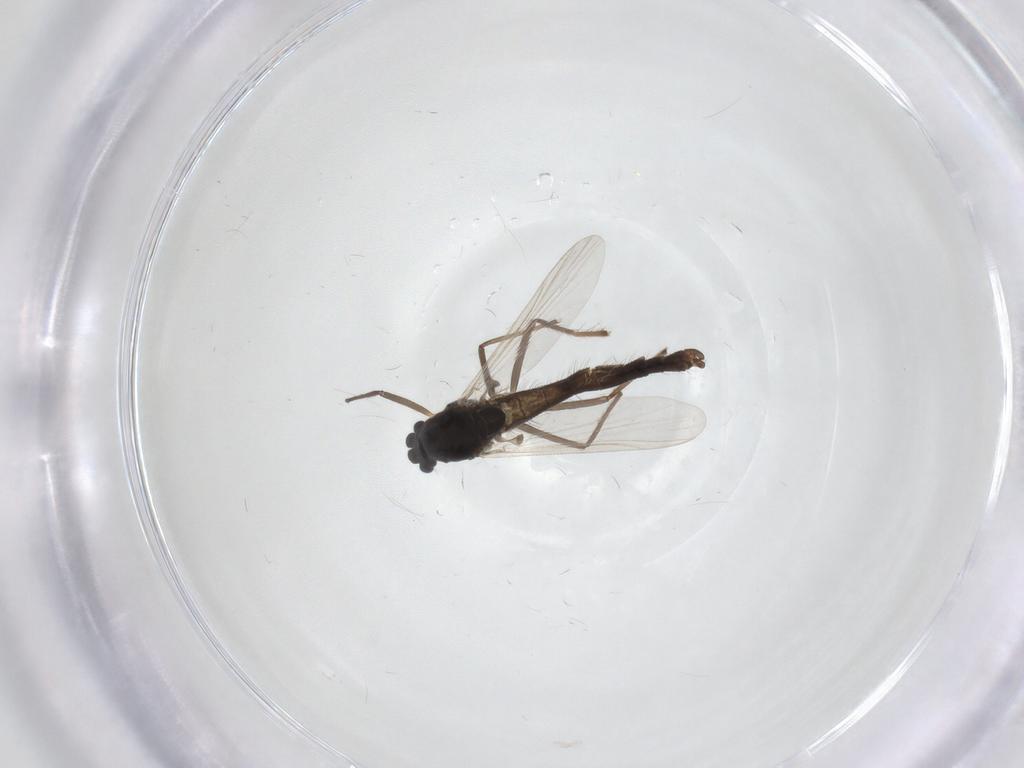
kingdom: Animalia
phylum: Arthropoda
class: Insecta
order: Diptera
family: Chironomidae
